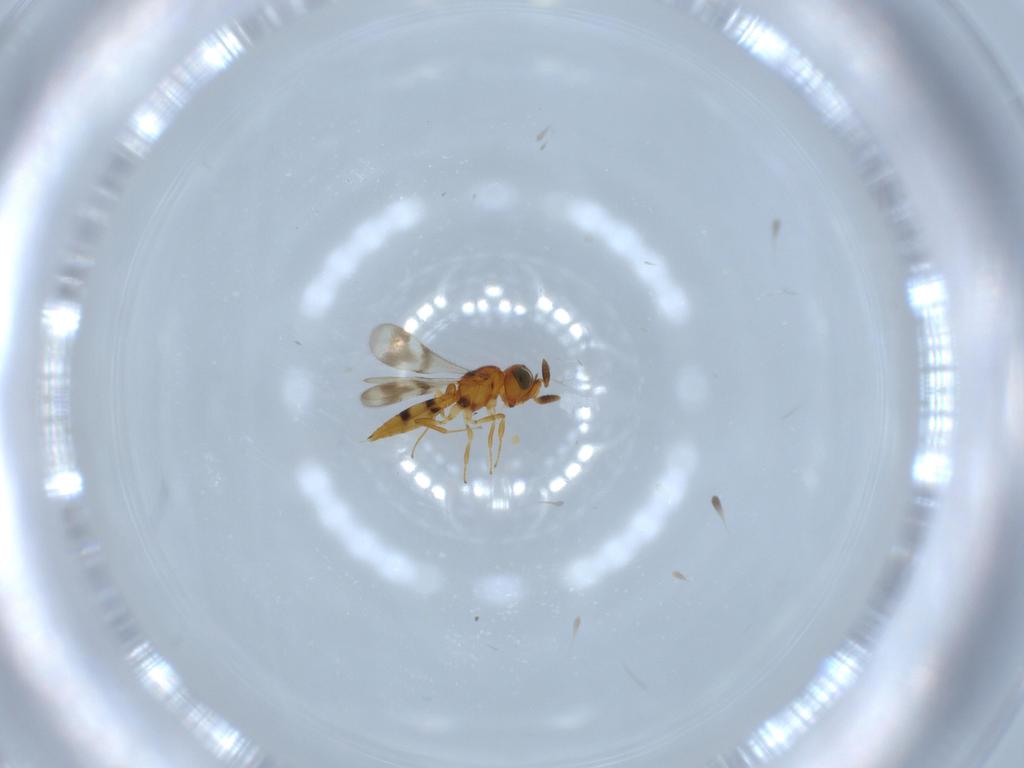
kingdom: Animalia
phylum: Arthropoda
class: Insecta
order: Hymenoptera
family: Scelionidae
